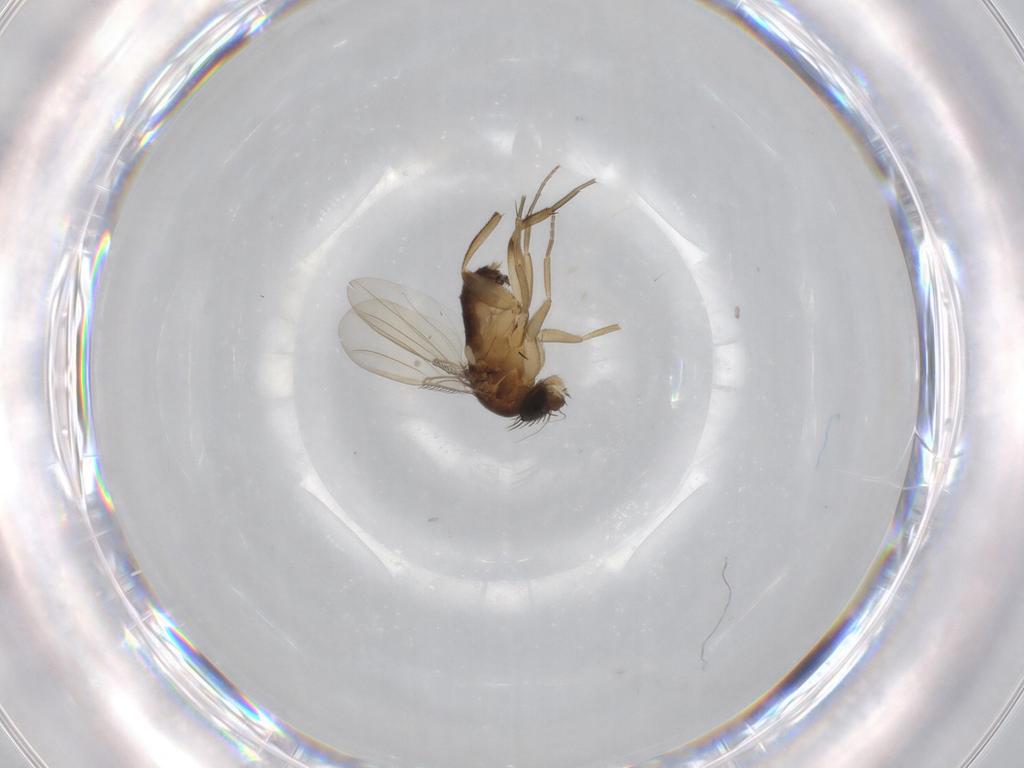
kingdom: Animalia
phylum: Arthropoda
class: Insecta
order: Diptera
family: Phoridae
